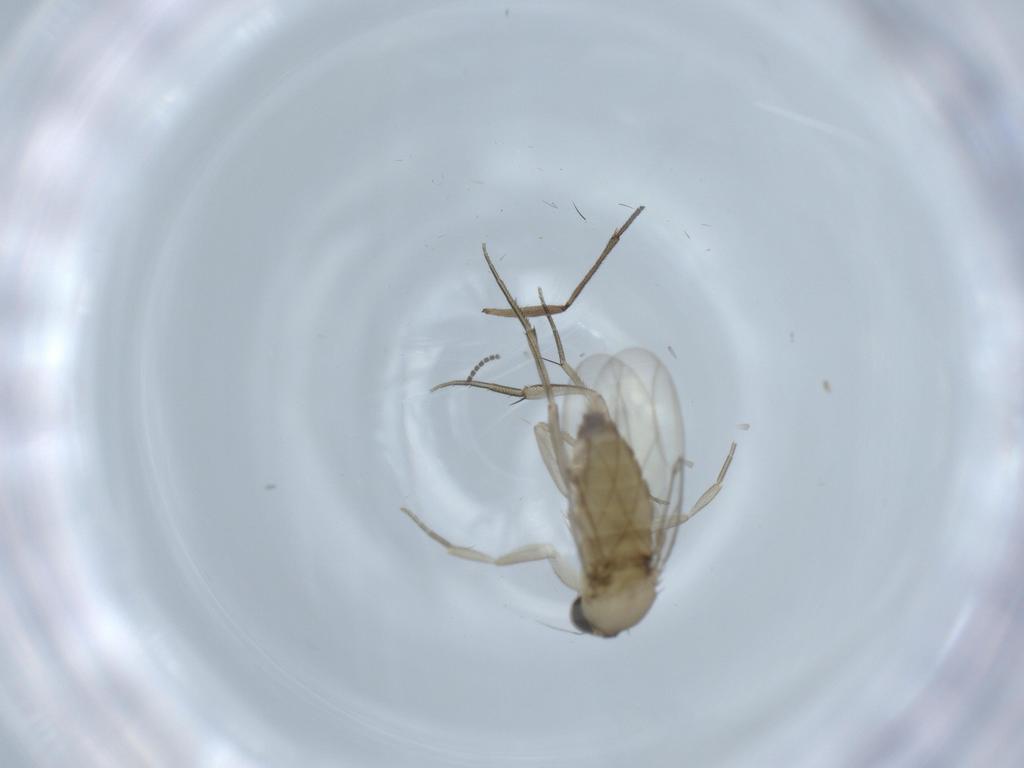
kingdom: Animalia
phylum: Arthropoda
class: Insecta
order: Diptera
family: Sciaridae
